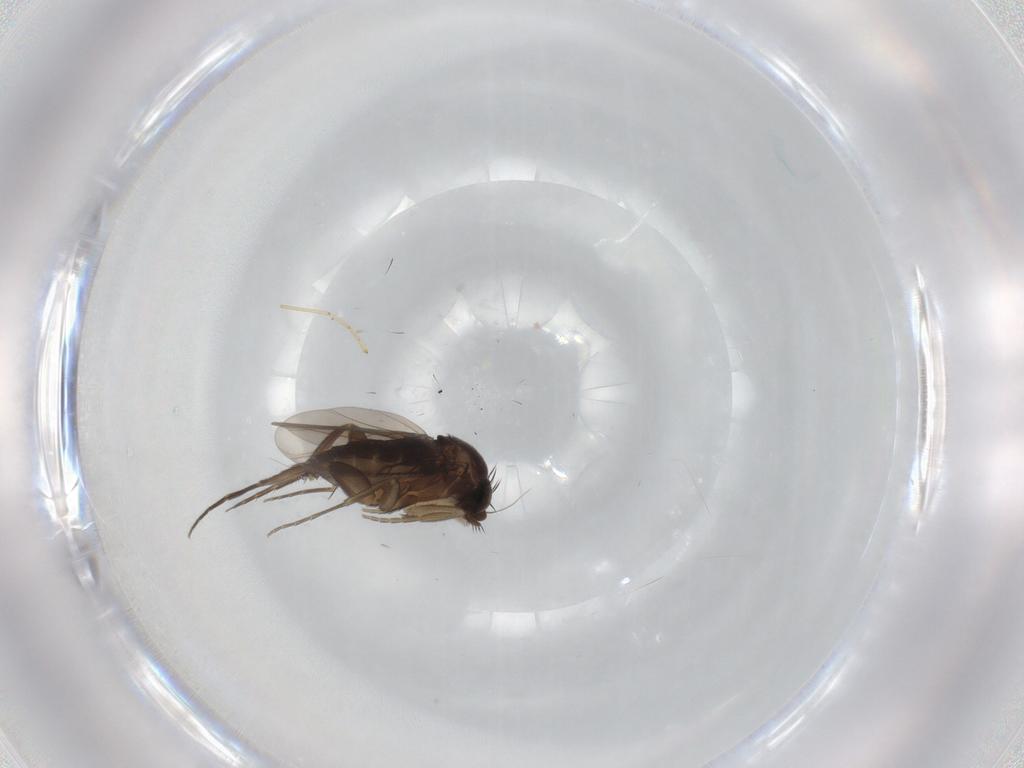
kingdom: Animalia
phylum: Arthropoda
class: Insecta
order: Diptera
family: Phoridae
